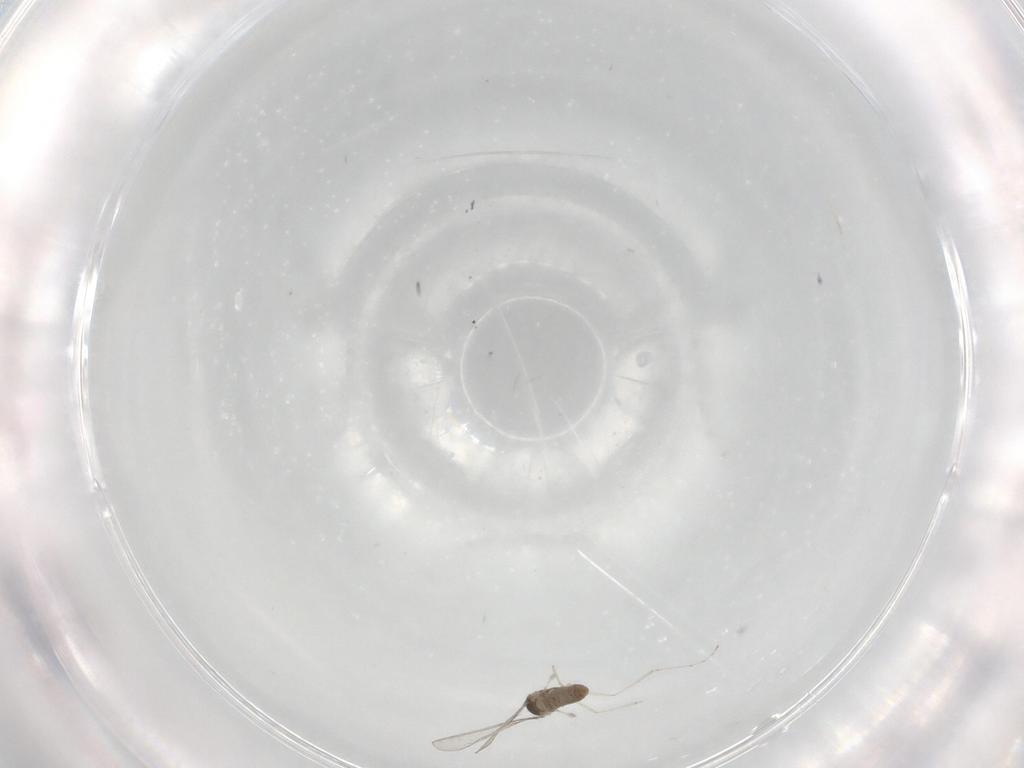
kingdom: Animalia
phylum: Arthropoda
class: Insecta
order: Diptera
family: Cecidomyiidae
